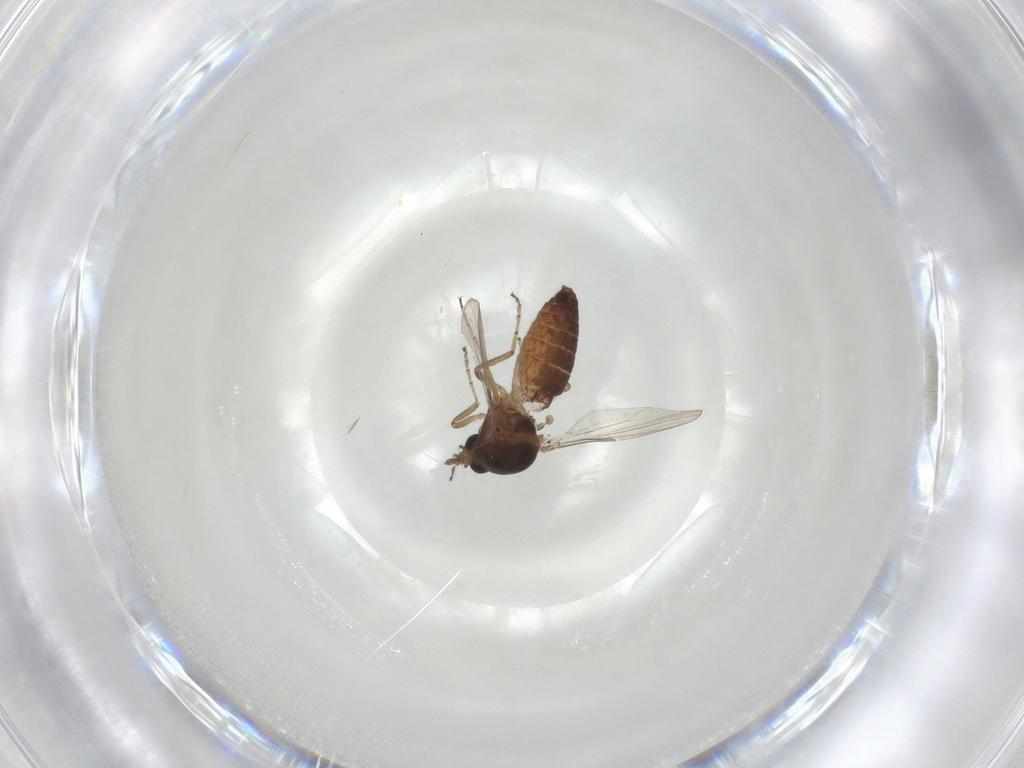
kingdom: Animalia
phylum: Arthropoda
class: Insecta
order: Diptera
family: Ceratopogonidae
